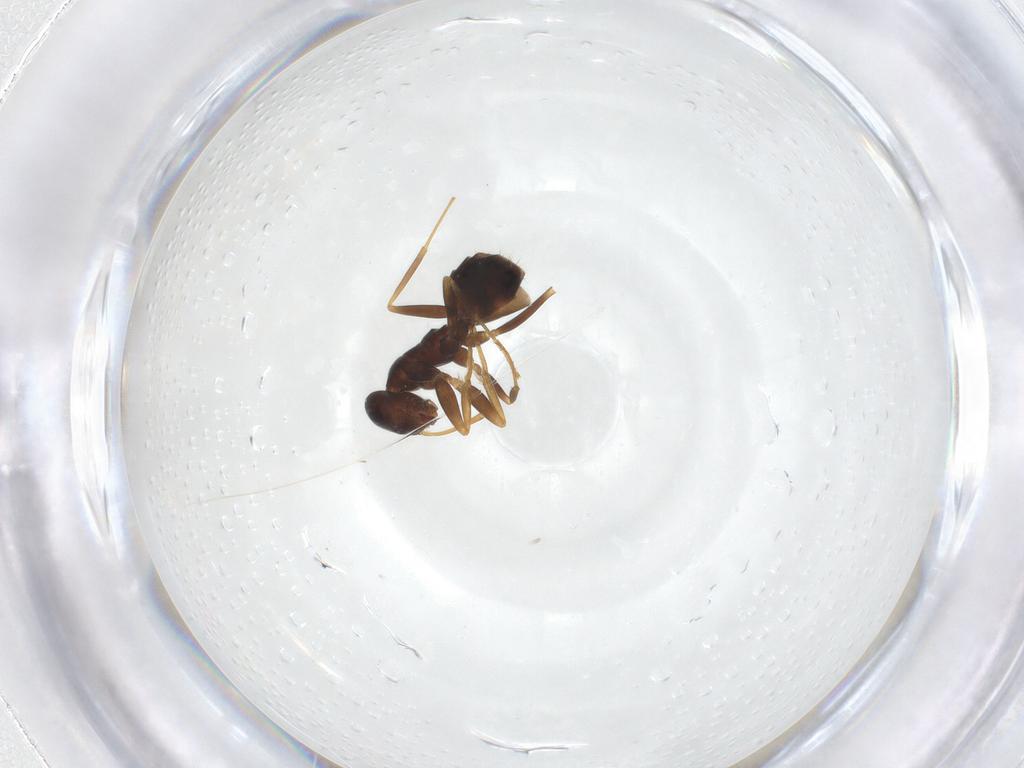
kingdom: Animalia
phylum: Arthropoda
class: Insecta
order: Hymenoptera
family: Formicidae
